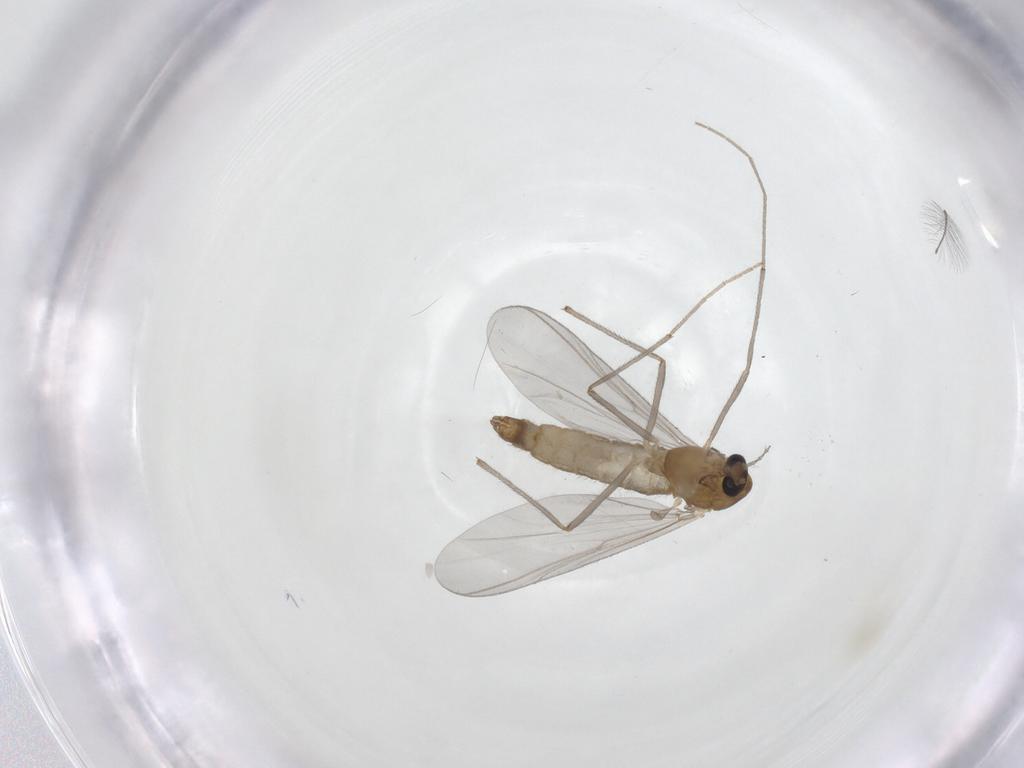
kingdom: Animalia
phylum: Arthropoda
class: Insecta
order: Diptera
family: Chironomidae
